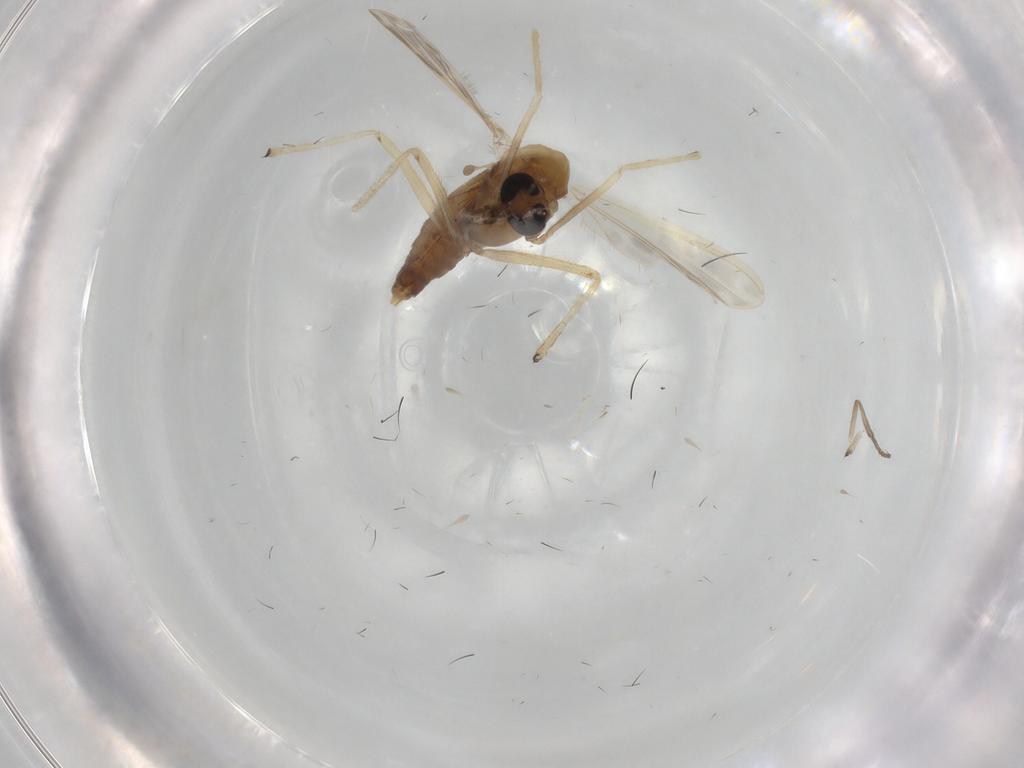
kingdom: Animalia
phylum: Arthropoda
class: Insecta
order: Diptera
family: Chironomidae
